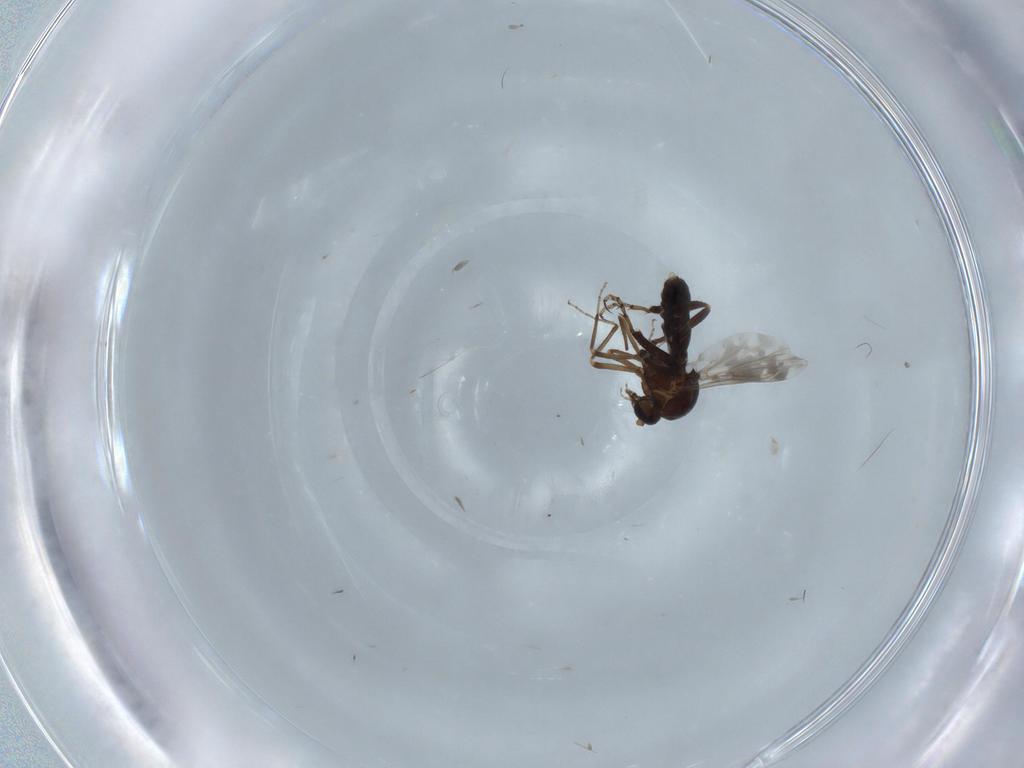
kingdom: Animalia
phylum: Arthropoda
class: Insecta
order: Diptera
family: Ceratopogonidae
